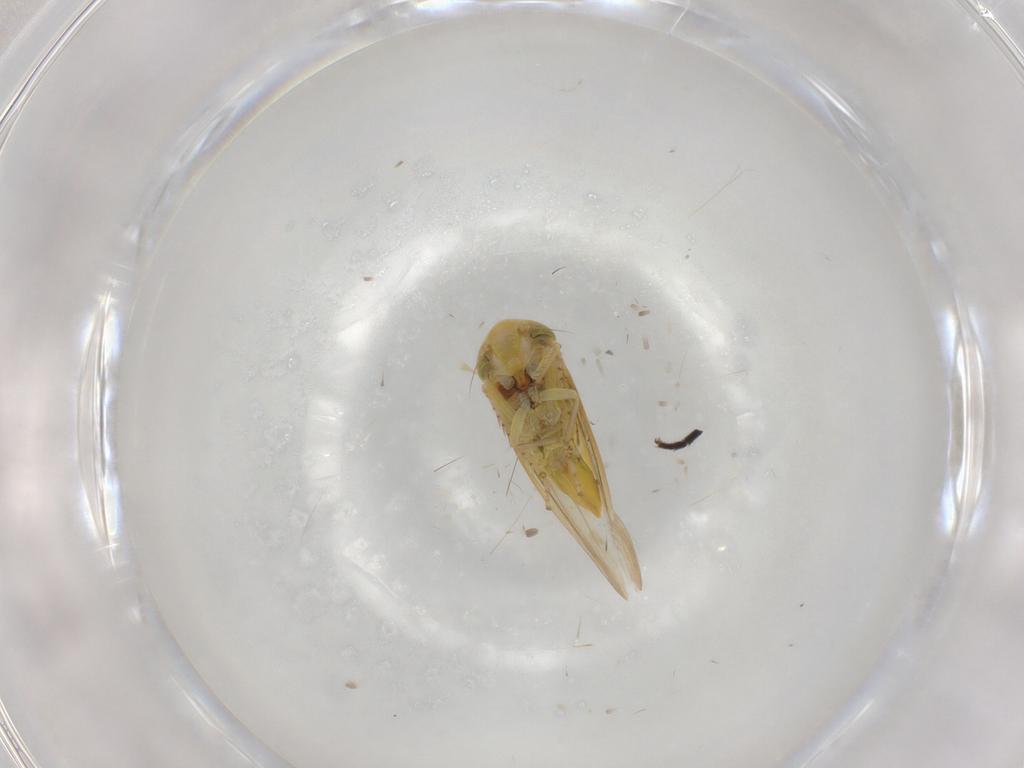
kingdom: Animalia
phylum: Arthropoda
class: Insecta
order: Hemiptera
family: Cicadellidae
